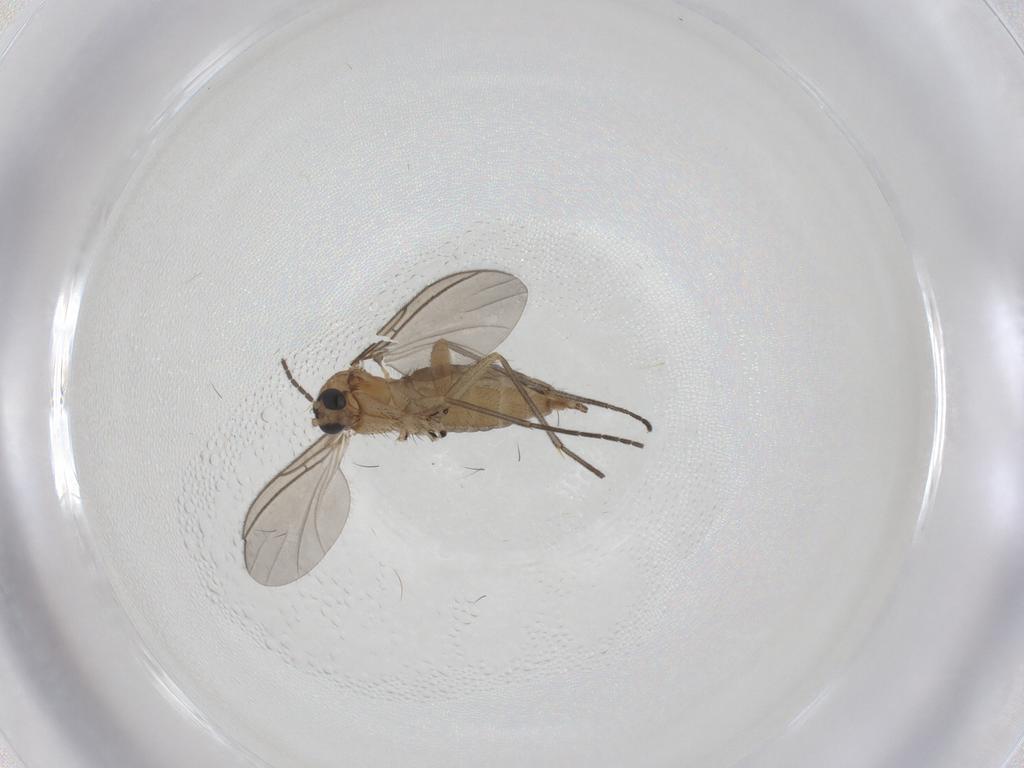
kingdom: Animalia
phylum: Arthropoda
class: Insecta
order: Diptera
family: Sciaridae
